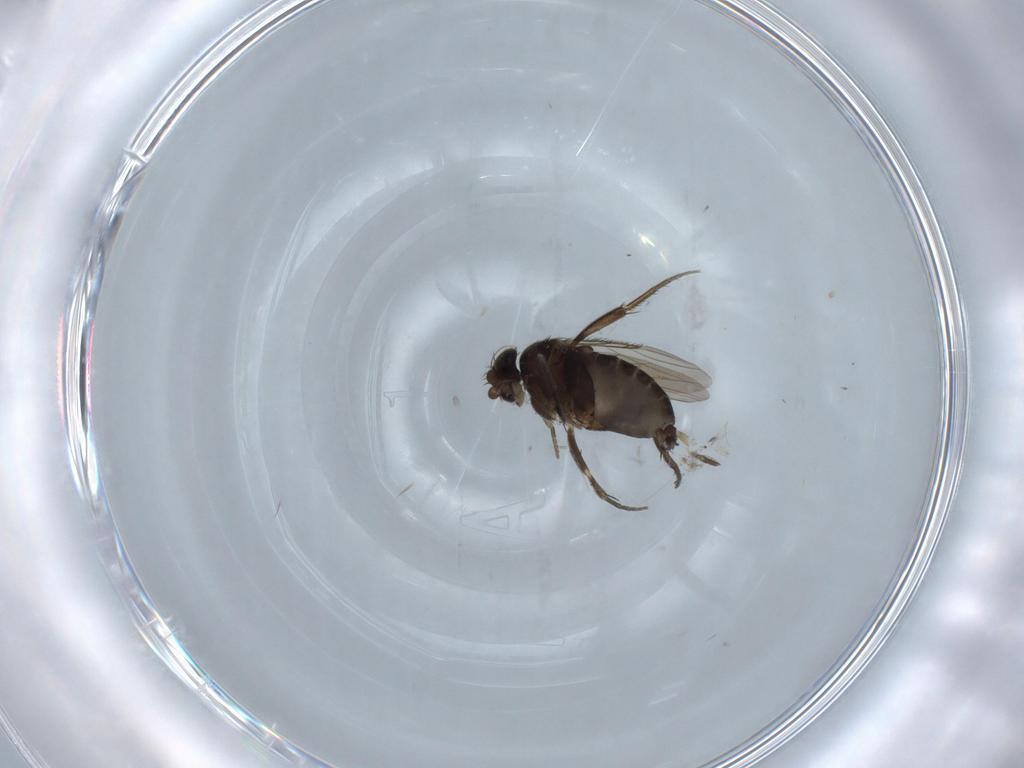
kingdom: Animalia
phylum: Arthropoda
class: Insecta
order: Diptera
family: Phoridae
